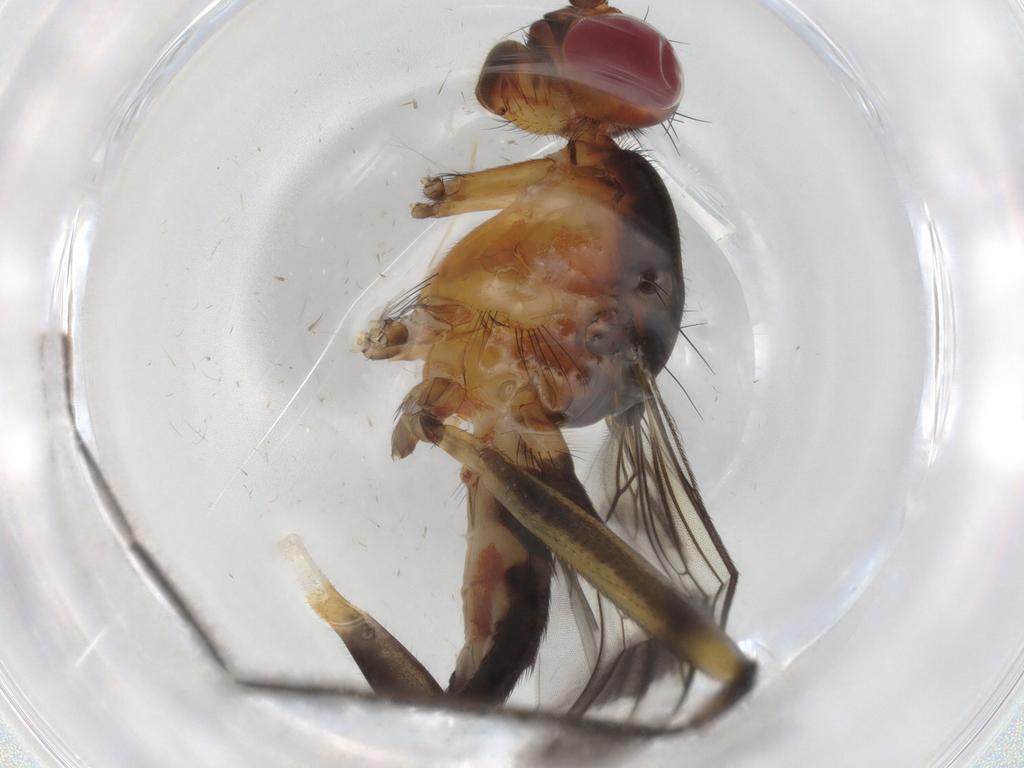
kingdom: Animalia
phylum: Arthropoda
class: Insecta
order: Diptera
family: Micropezidae
